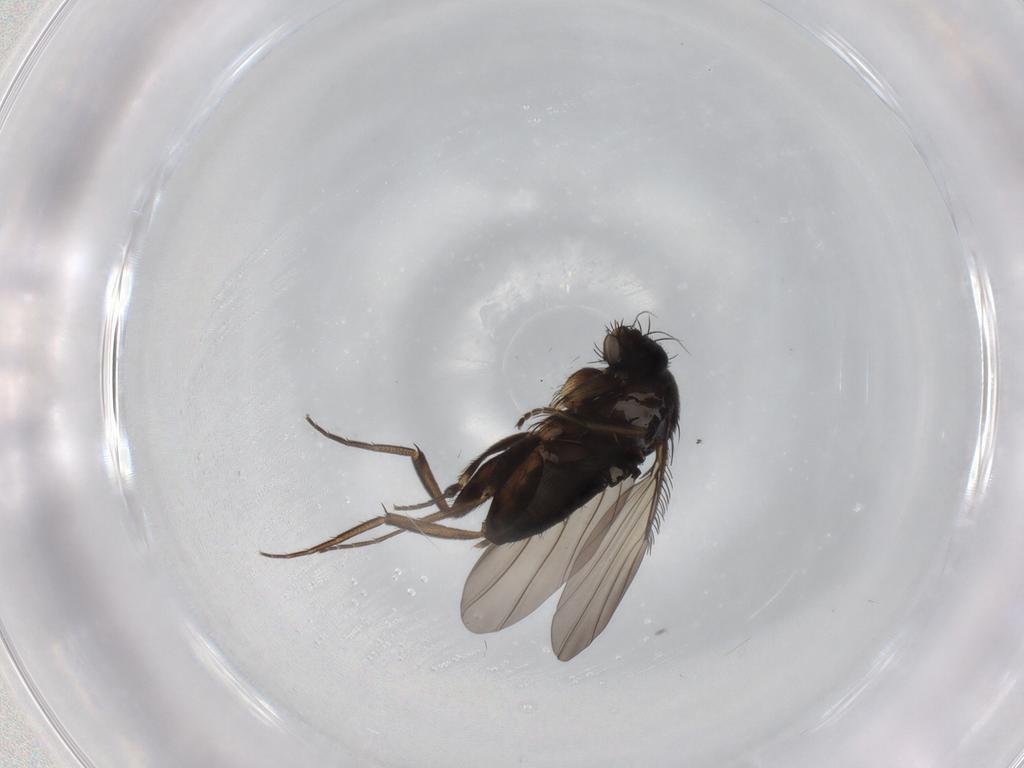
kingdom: Animalia
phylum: Arthropoda
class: Insecta
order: Diptera
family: Phoridae
